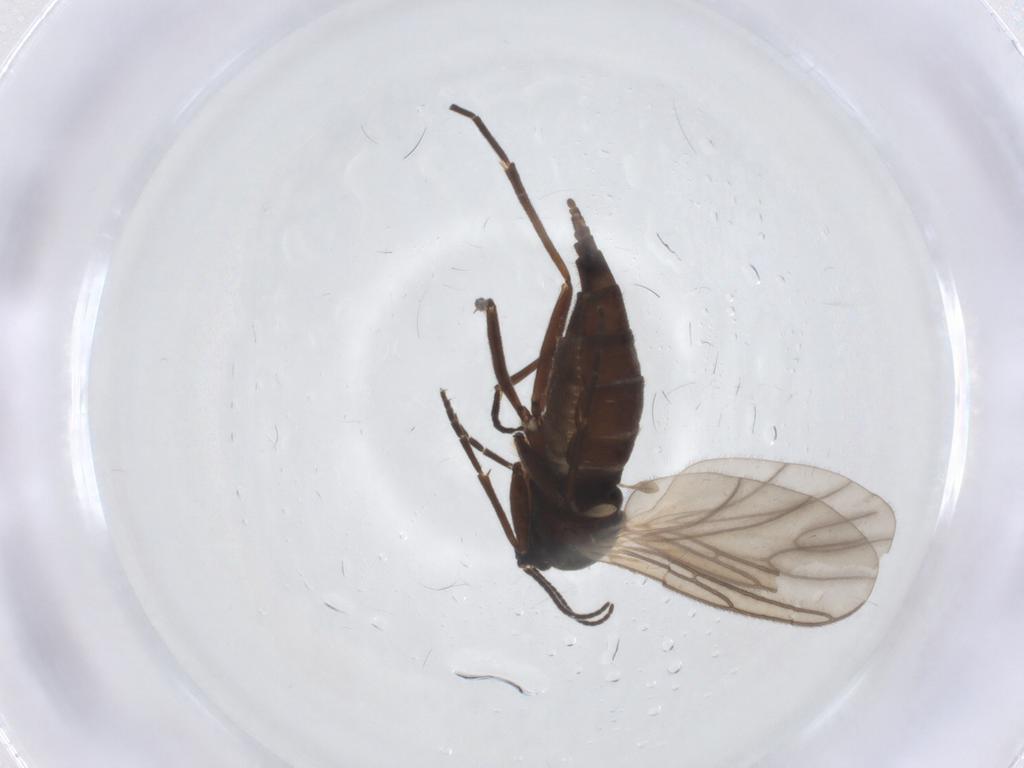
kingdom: Animalia
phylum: Arthropoda
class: Insecta
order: Diptera
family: Sciaridae
